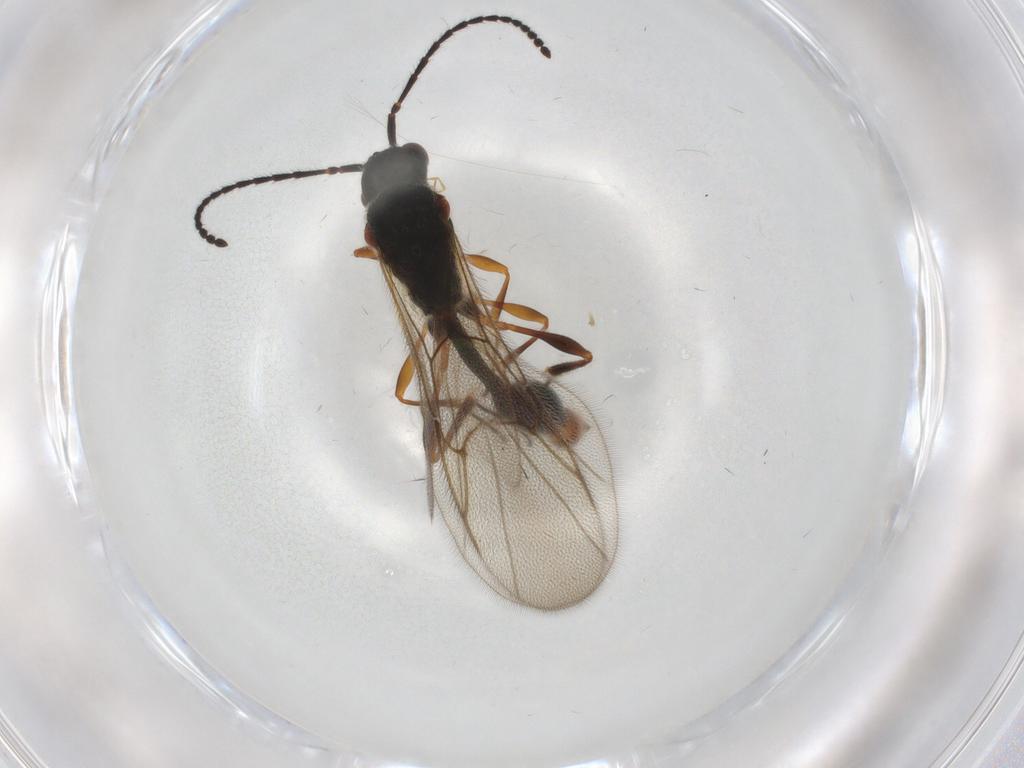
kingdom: Animalia
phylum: Arthropoda
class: Insecta
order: Hymenoptera
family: Diapriidae
